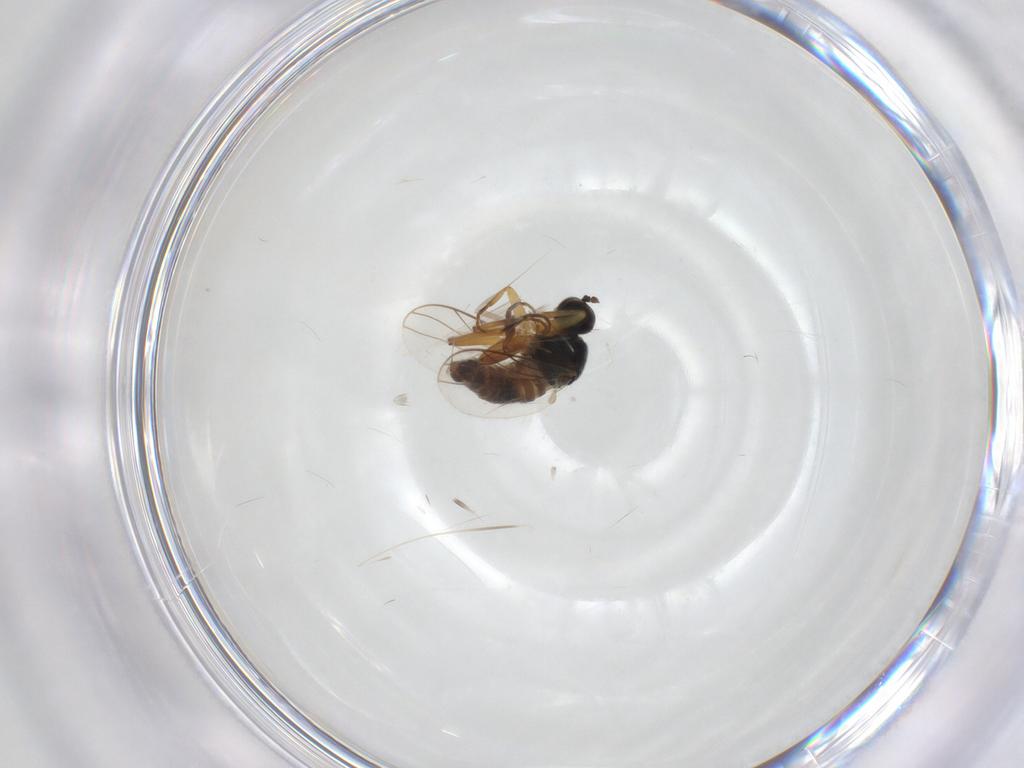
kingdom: Animalia
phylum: Arthropoda
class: Insecta
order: Diptera
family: Hybotidae
